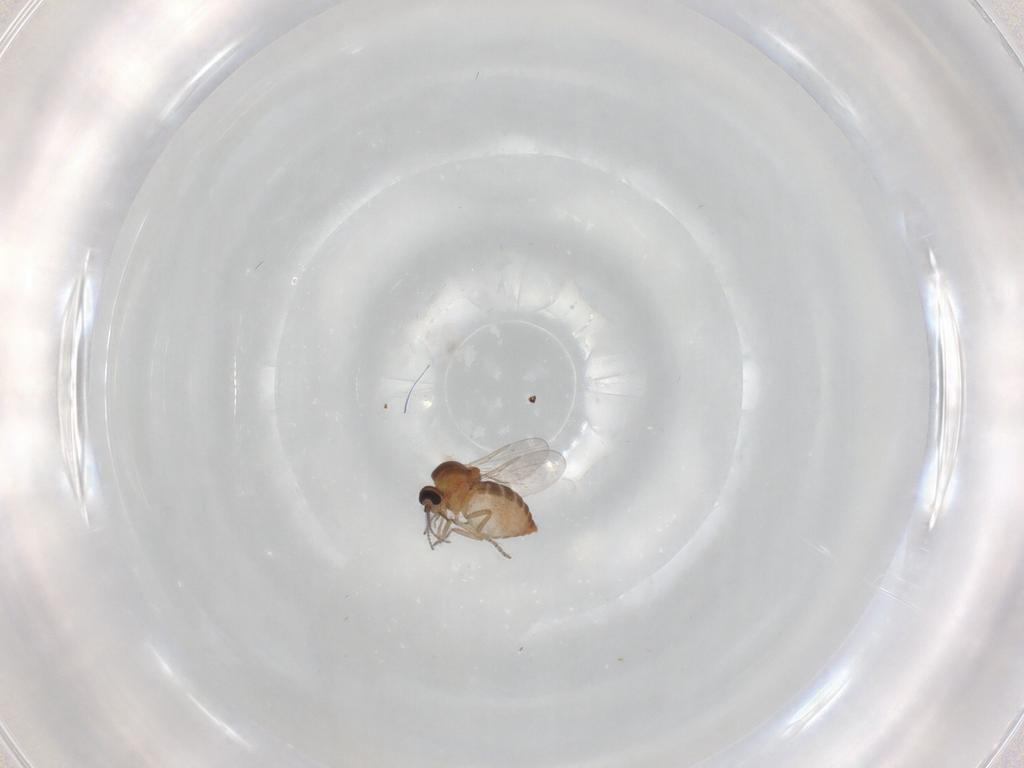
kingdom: Animalia
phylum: Arthropoda
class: Insecta
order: Diptera
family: Ceratopogonidae
